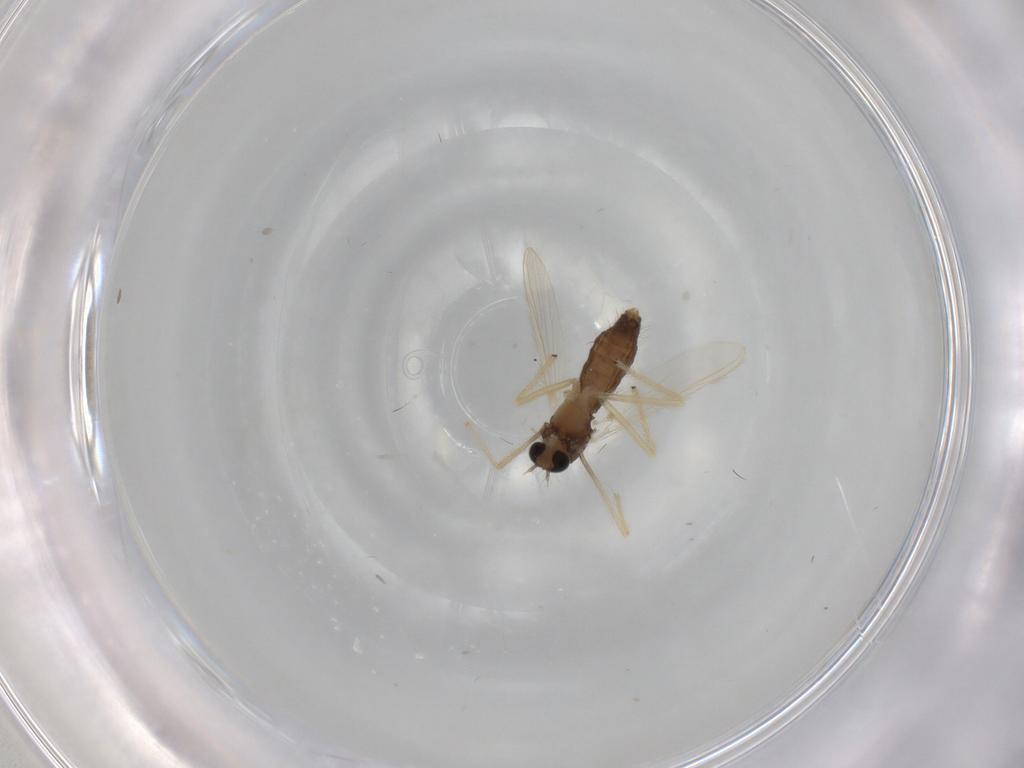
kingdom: Animalia
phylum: Arthropoda
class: Insecta
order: Diptera
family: Chironomidae
